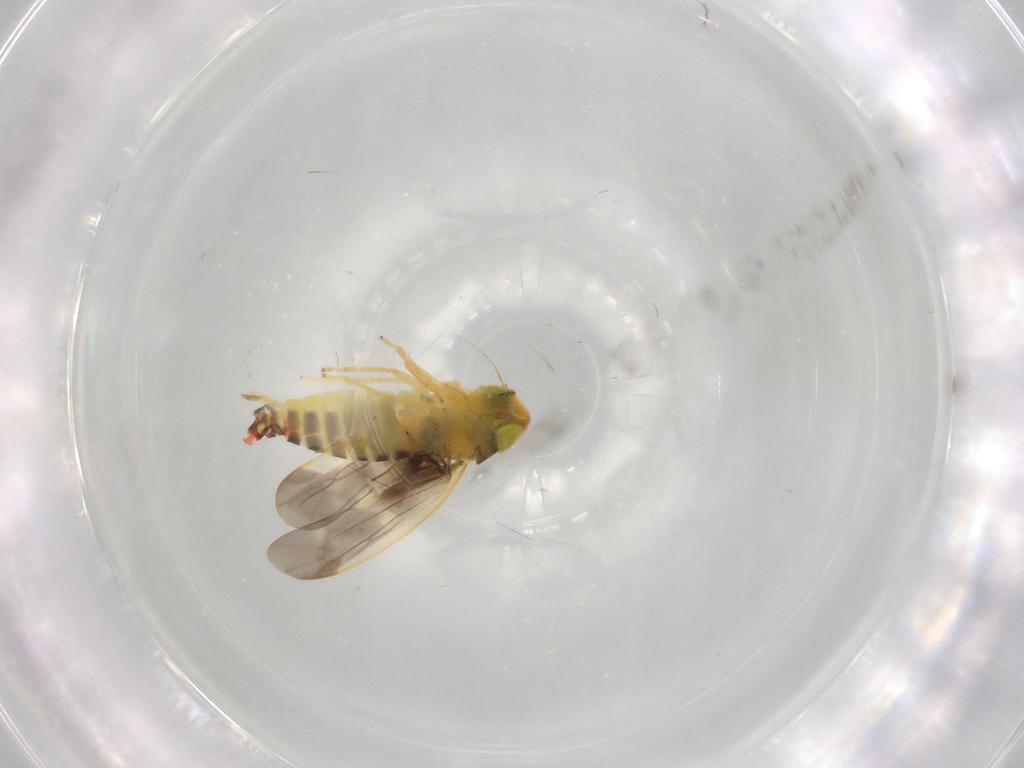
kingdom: Animalia
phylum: Arthropoda
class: Insecta
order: Hemiptera
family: Cicadellidae
